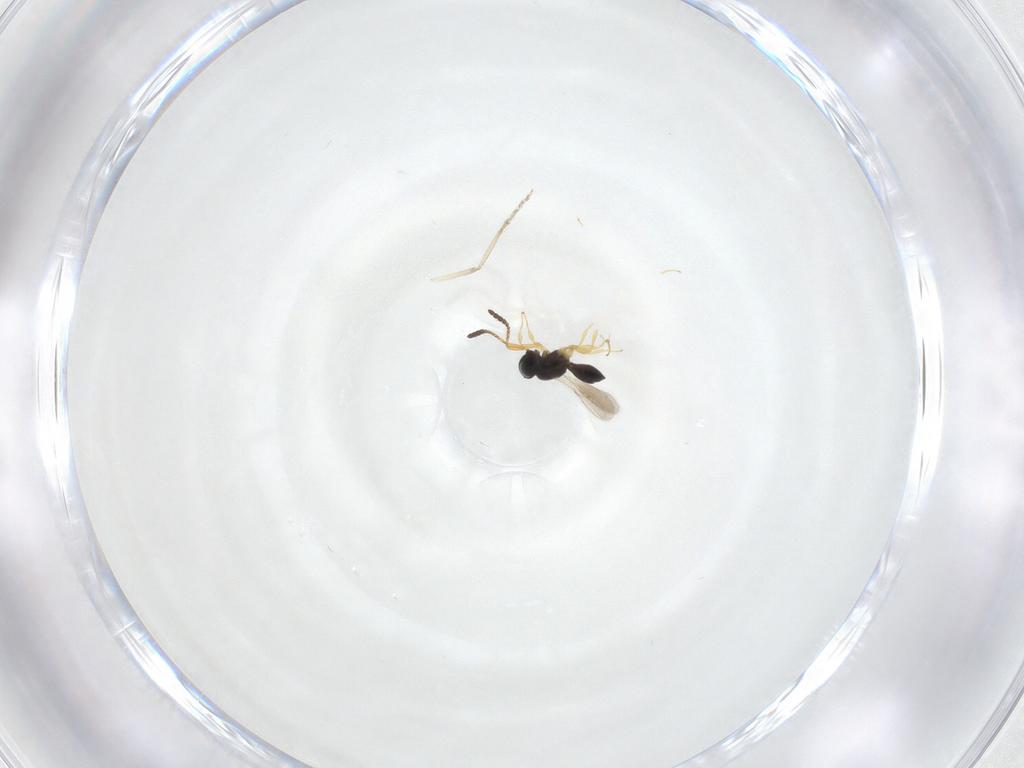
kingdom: Animalia
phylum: Arthropoda
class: Insecta
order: Hymenoptera
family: Scelionidae
